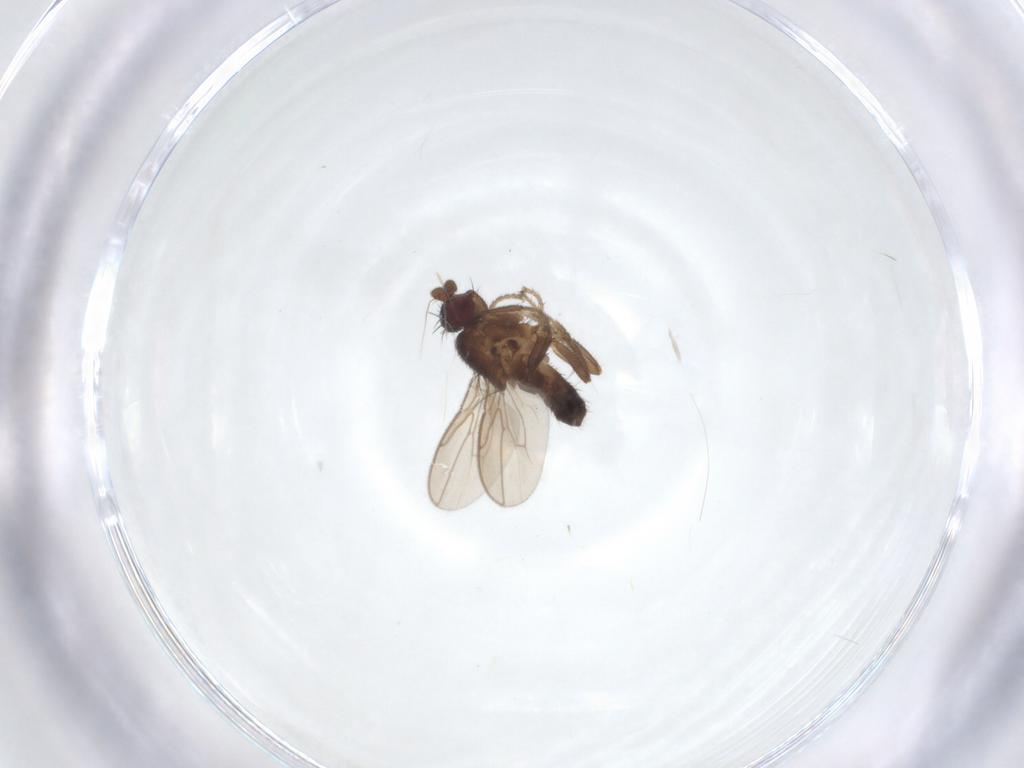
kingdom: Animalia
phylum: Arthropoda
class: Insecta
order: Diptera
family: Sphaeroceridae
